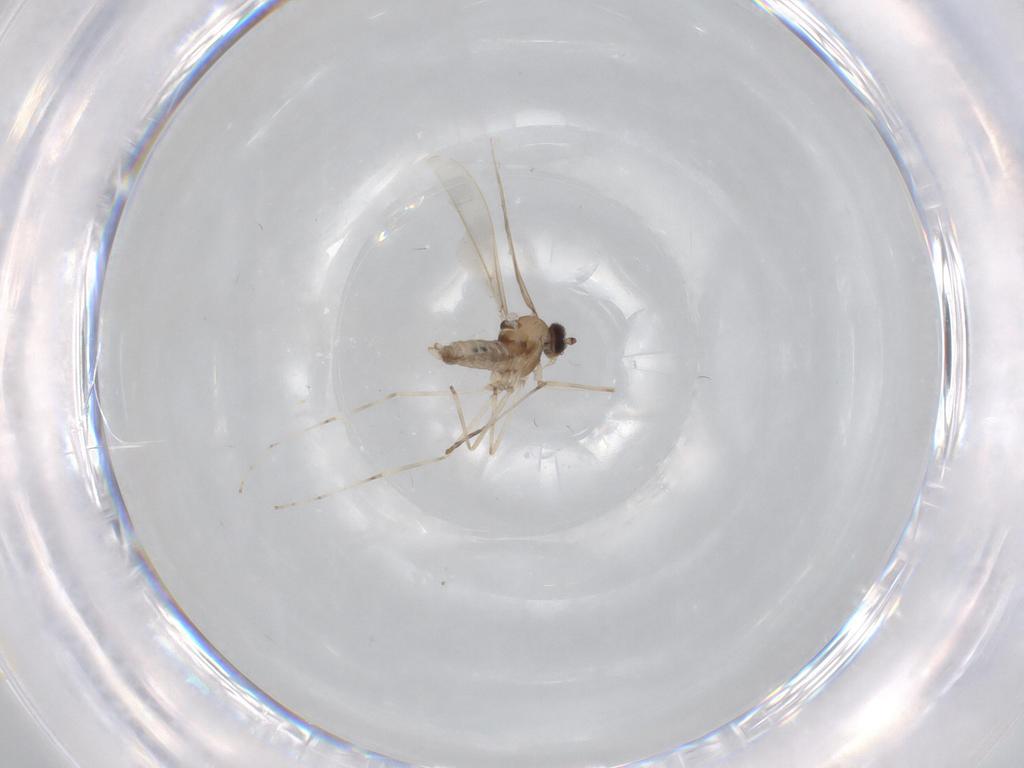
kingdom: Animalia
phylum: Arthropoda
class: Insecta
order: Diptera
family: Cecidomyiidae
